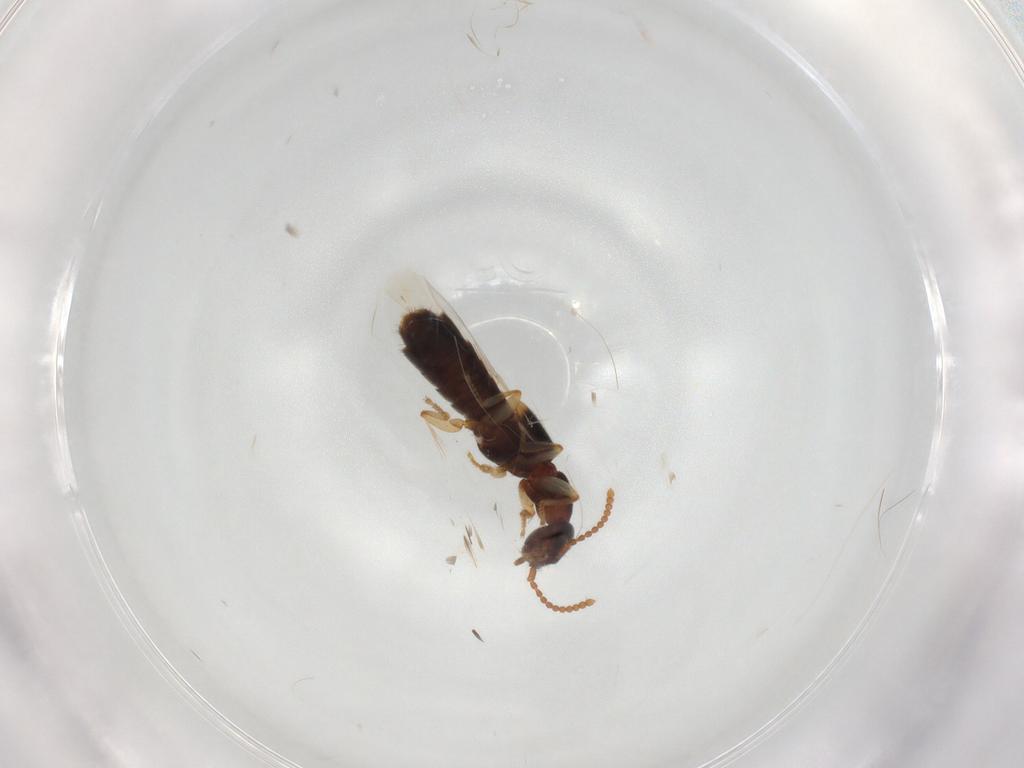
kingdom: Animalia
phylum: Arthropoda
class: Insecta
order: Coleoptera
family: Staphylinidae
